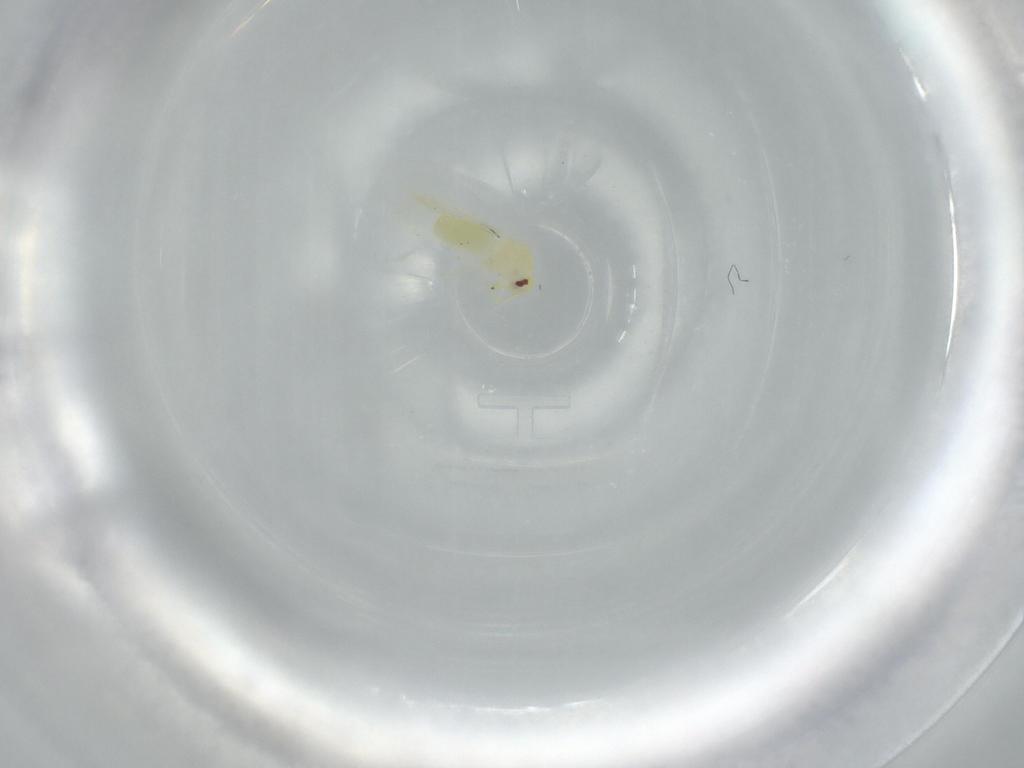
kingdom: Animalia
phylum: Arthropoda
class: Insecta
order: Hemiptera
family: Aleyrodidae
